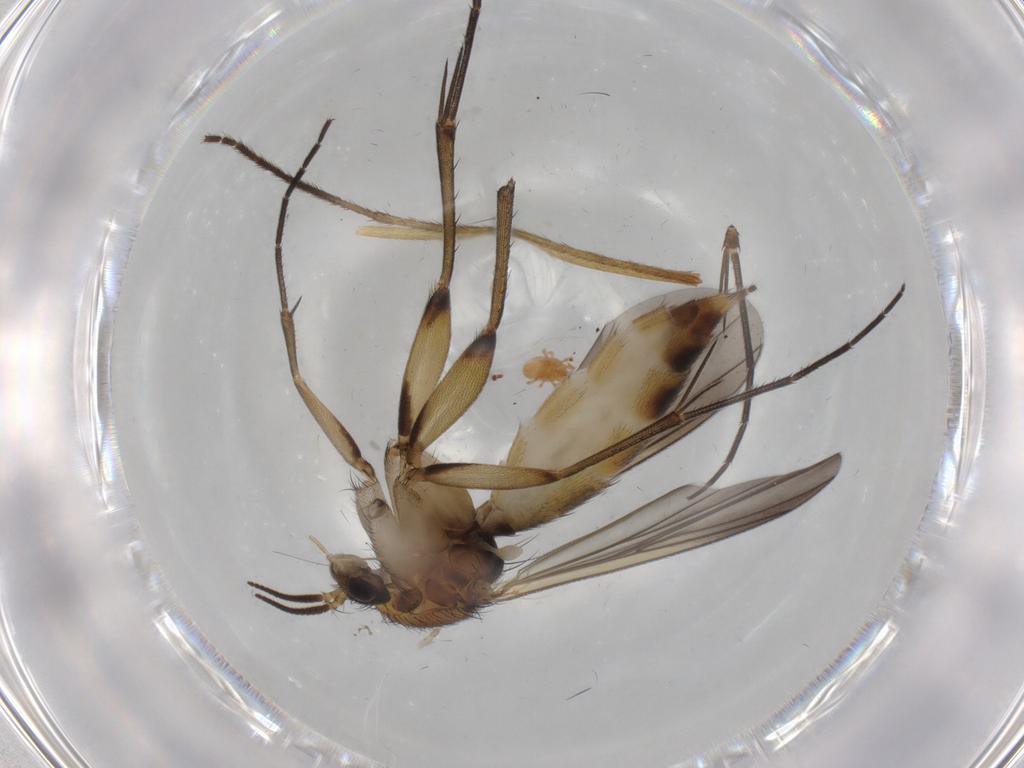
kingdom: Animalia
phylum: Arthropoda
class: Insecta
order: Diptera
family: Mycetophilidae
